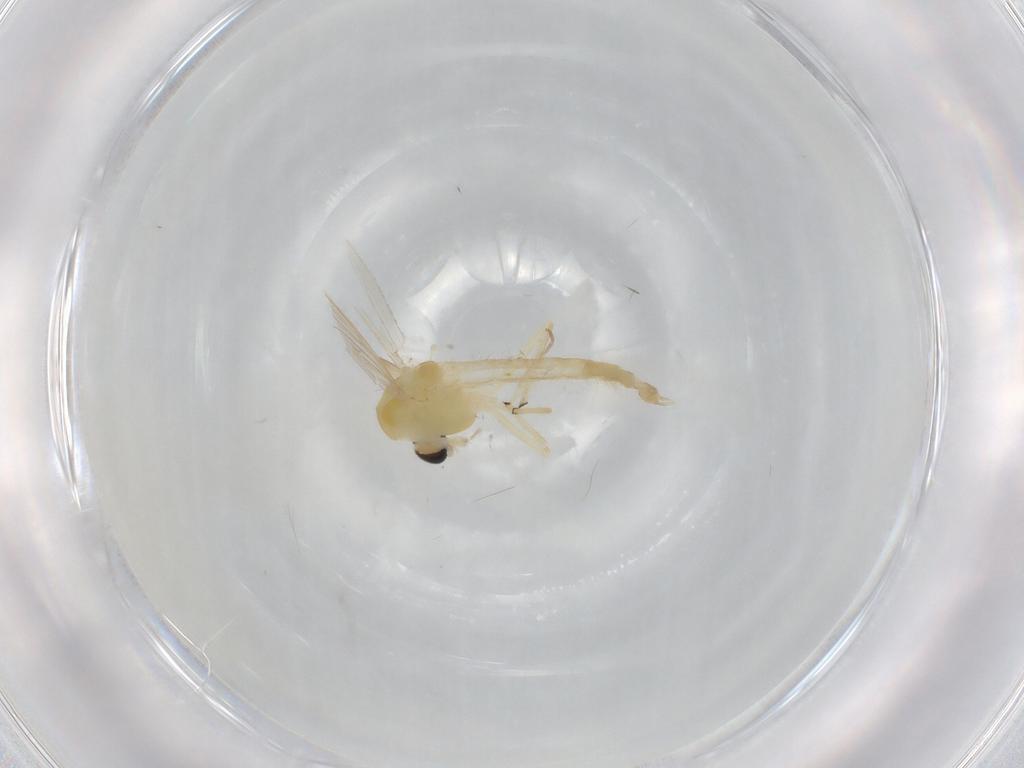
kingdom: Animalia
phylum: Arthropoda
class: Insecta
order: Diptera
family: Chironomidae
